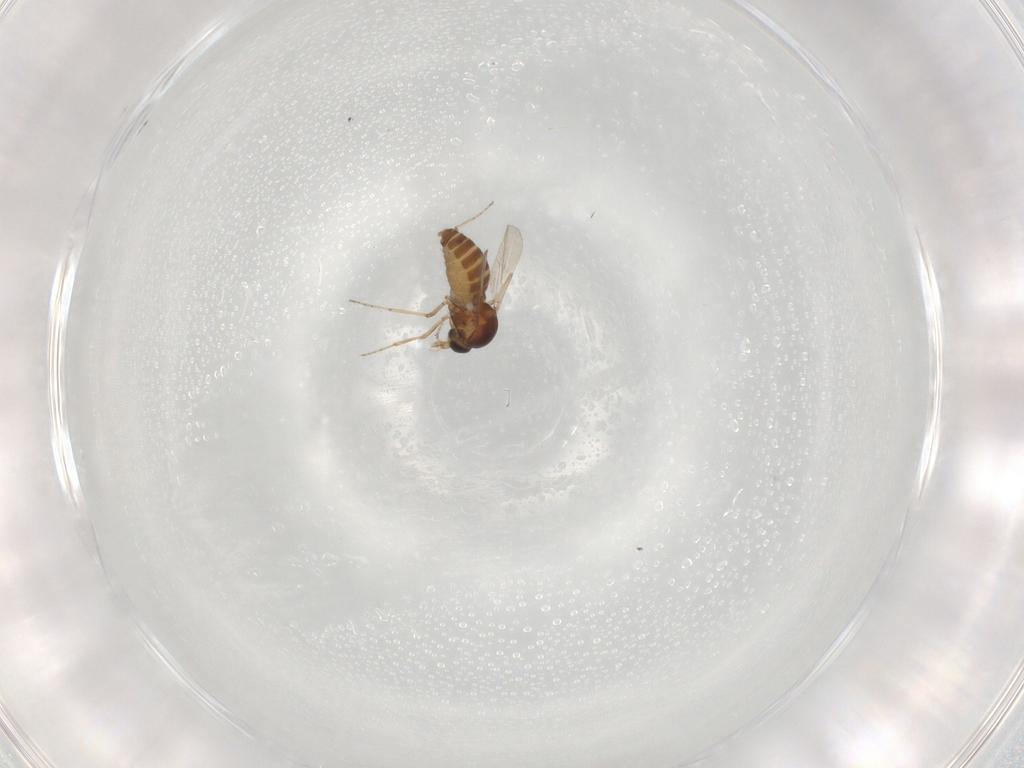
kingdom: Animalia
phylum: Arthropoda
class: Insecta
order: Diptera
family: Ceratopogonidae
